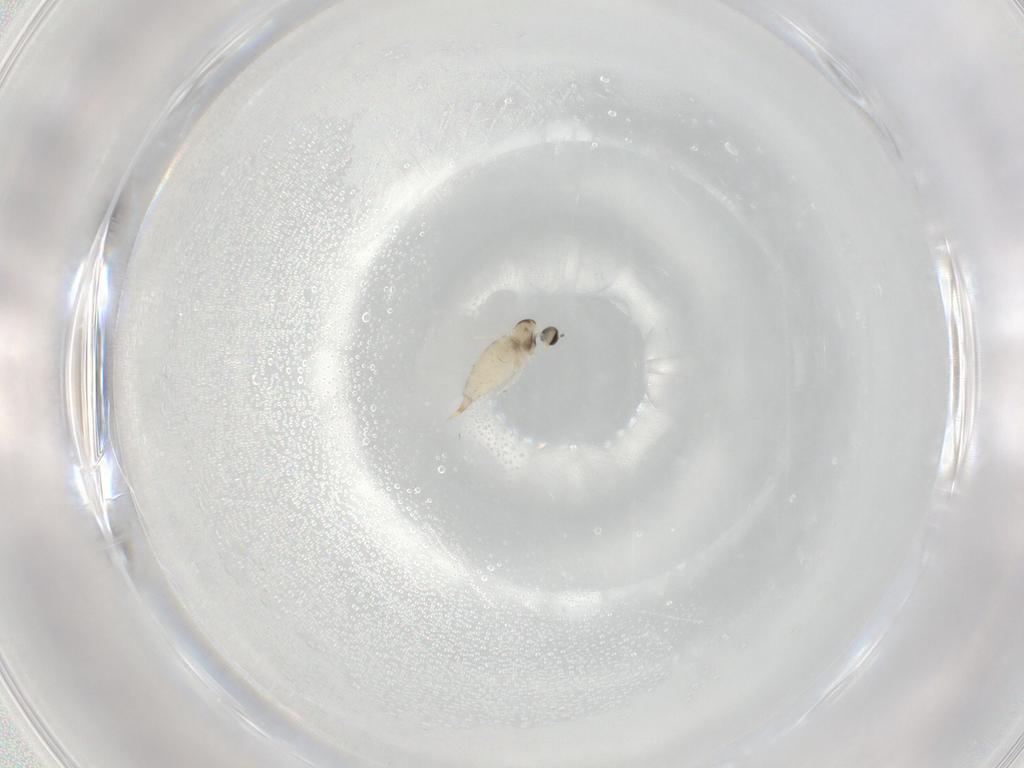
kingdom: Animalia
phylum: Arthropoda
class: Insecta
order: Diptera
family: Cecidomyiidae
